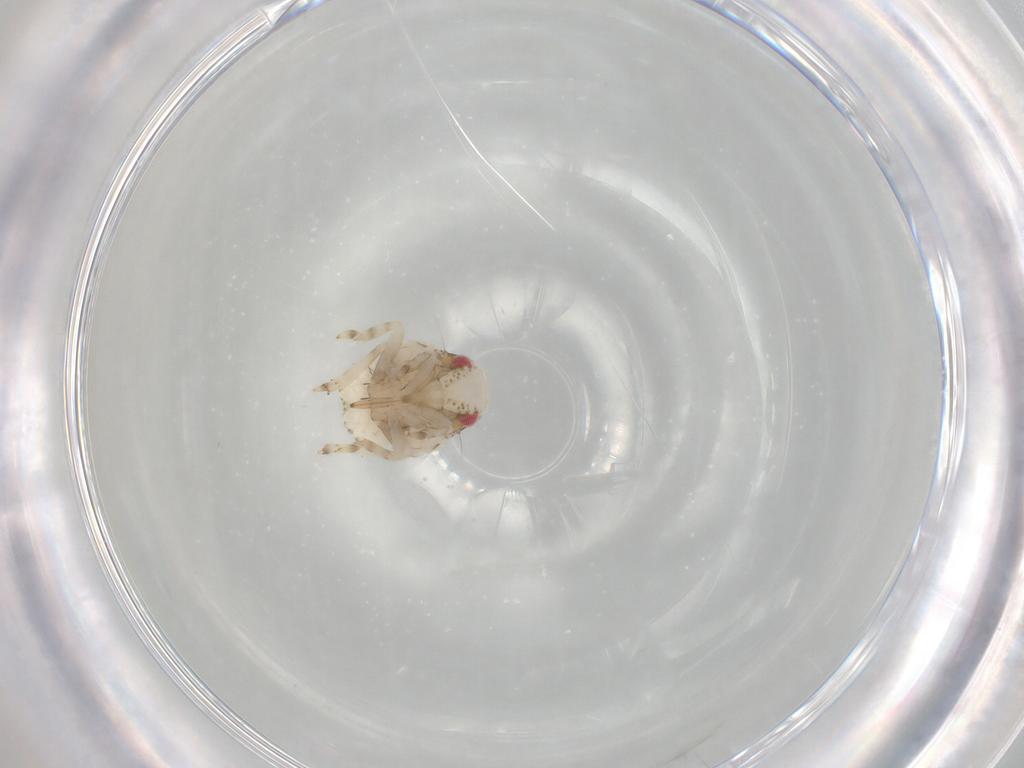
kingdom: Animalia
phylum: Arthropoda
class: Insecta
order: Hemiptera
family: Acanaloniidae
